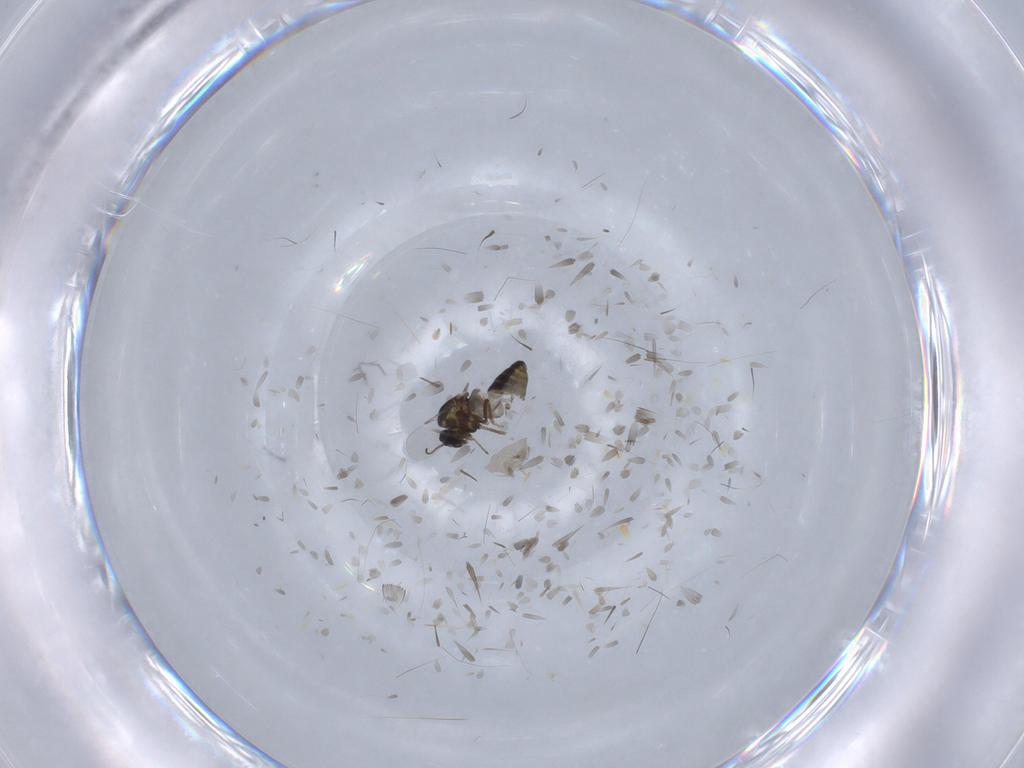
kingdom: Animalia
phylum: Arthropoda
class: Insecta
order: Diptera
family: Ceratopogonidae
